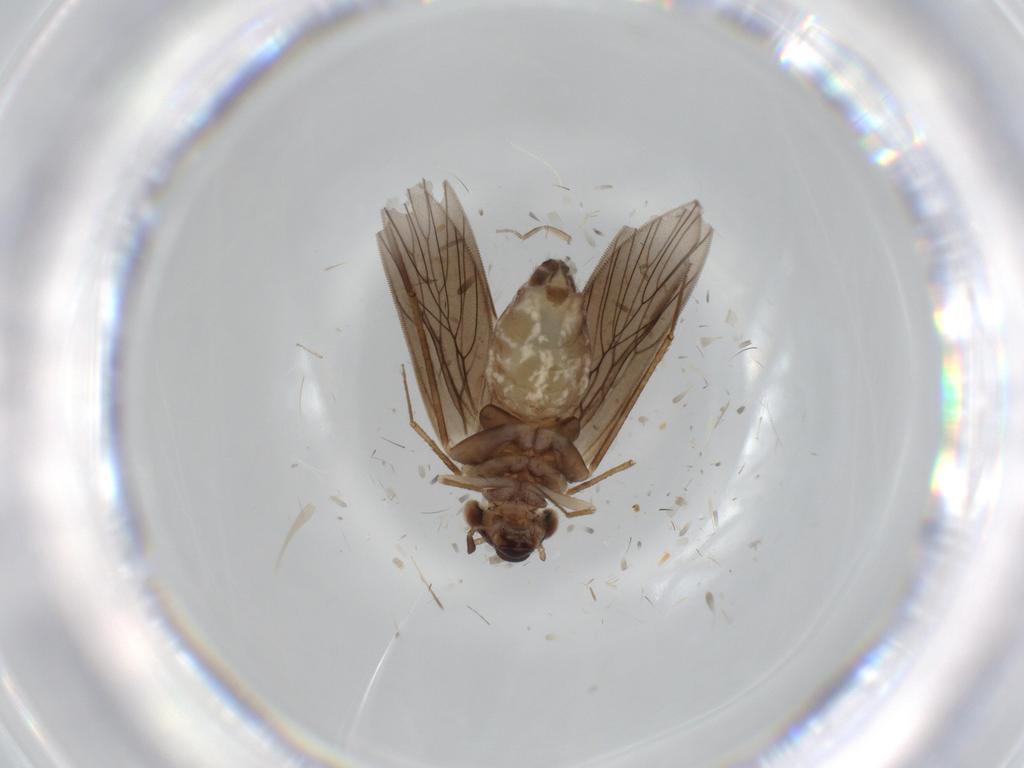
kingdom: Animalia
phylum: Arthropoda
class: Insecta
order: Psocodea
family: Lepidopsocidae
